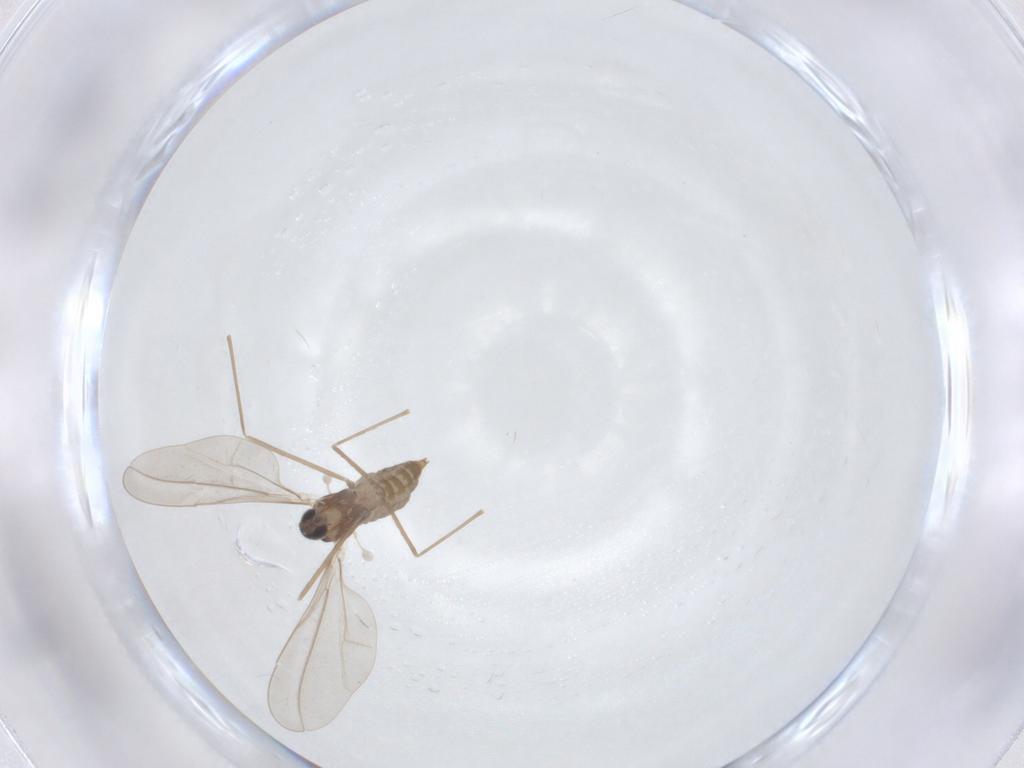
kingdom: Animalia
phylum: Arthropoda
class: Insecta
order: Diptera
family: Cecidomyiidae
